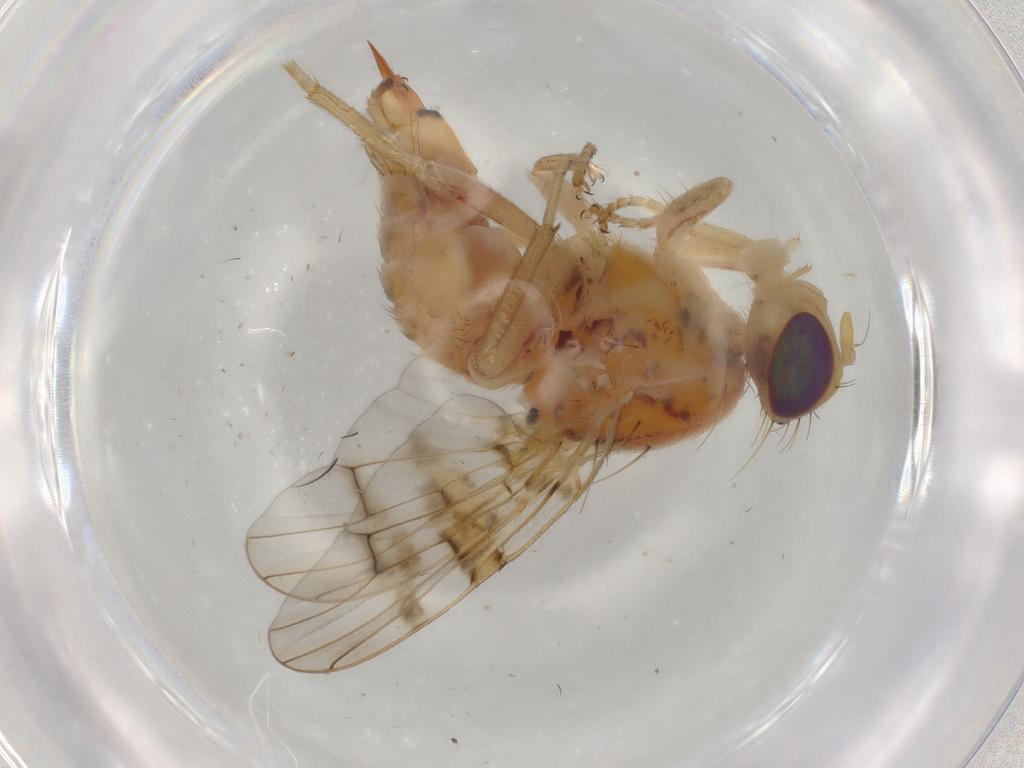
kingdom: Animalia
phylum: Arthropoda
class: Insecta
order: Diptera
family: Tephritidae
